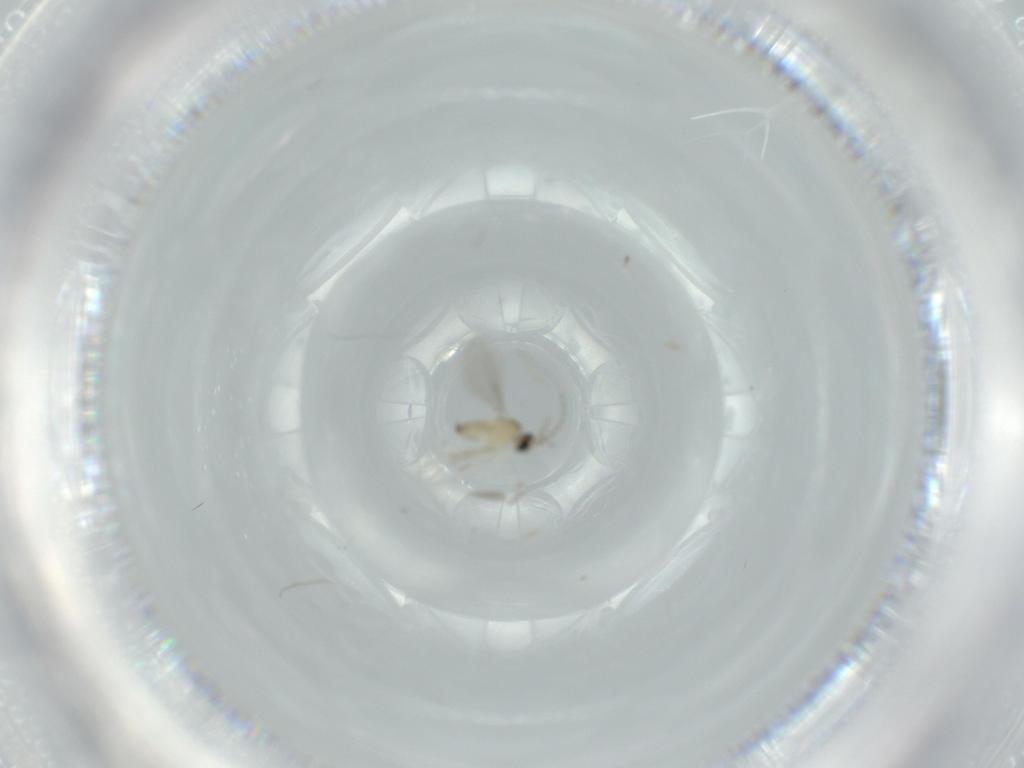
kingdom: Animalia
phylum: Arthropoda
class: Insecta
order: Diptera
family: Cecidomyiidae
